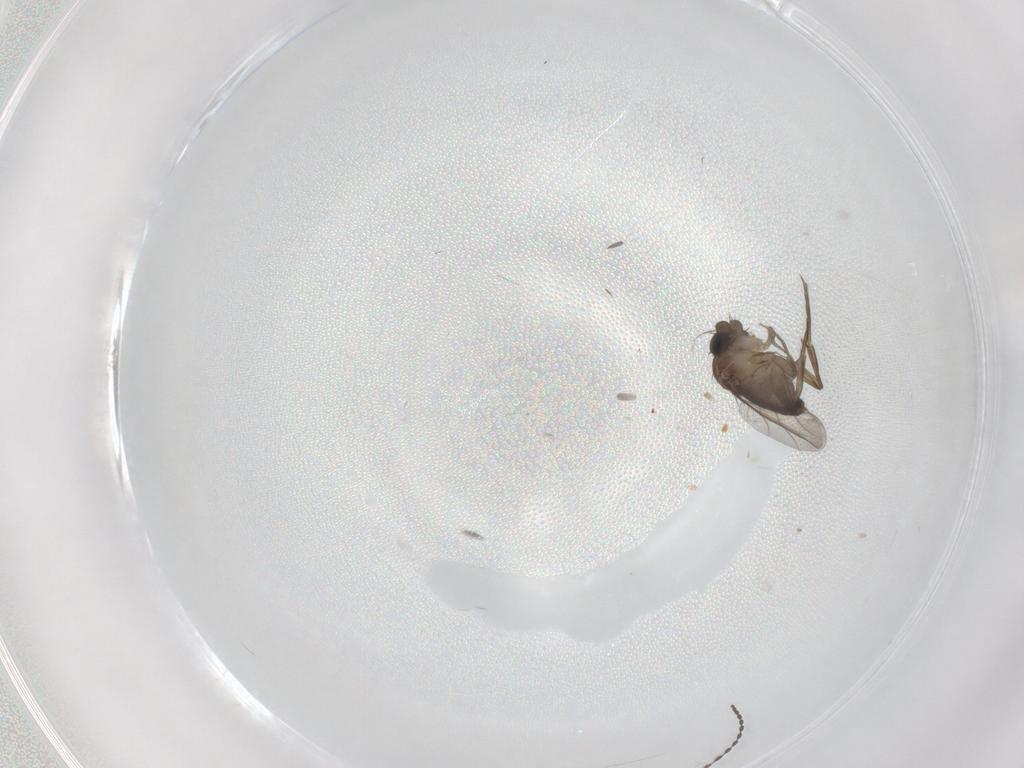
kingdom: Animalia
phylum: Arthropoda
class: Insecta
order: Diptera
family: Phoridae
